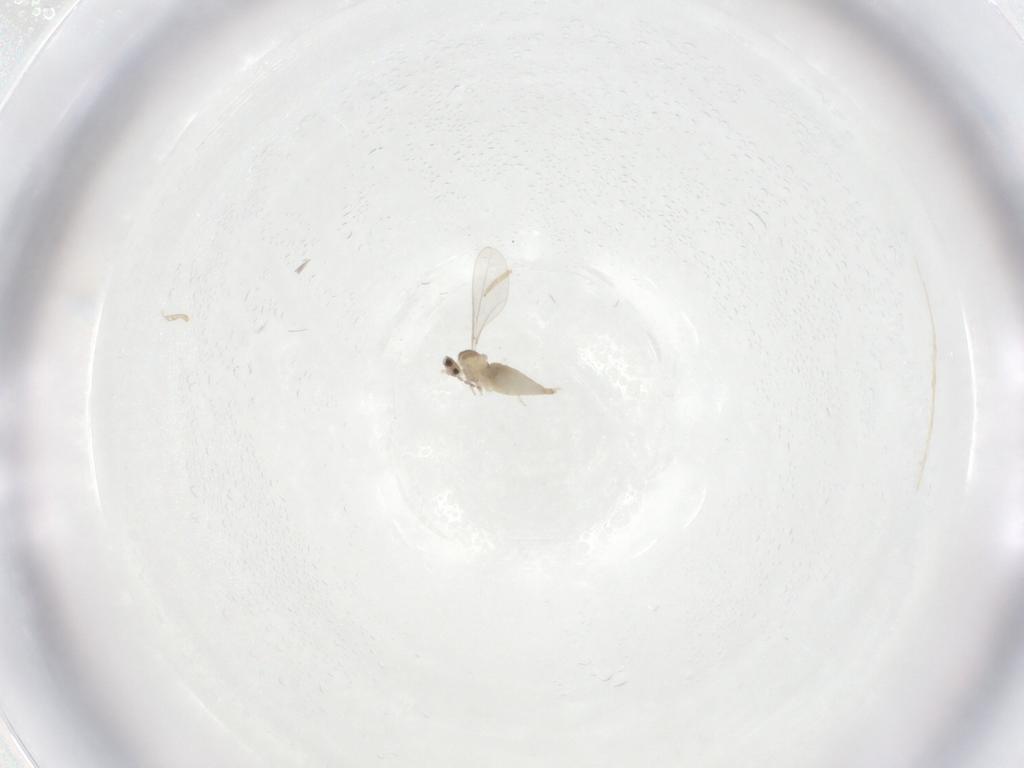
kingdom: Animalia
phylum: Arthropoda
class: Insecta
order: Diptera
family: Cecidomyiidae
